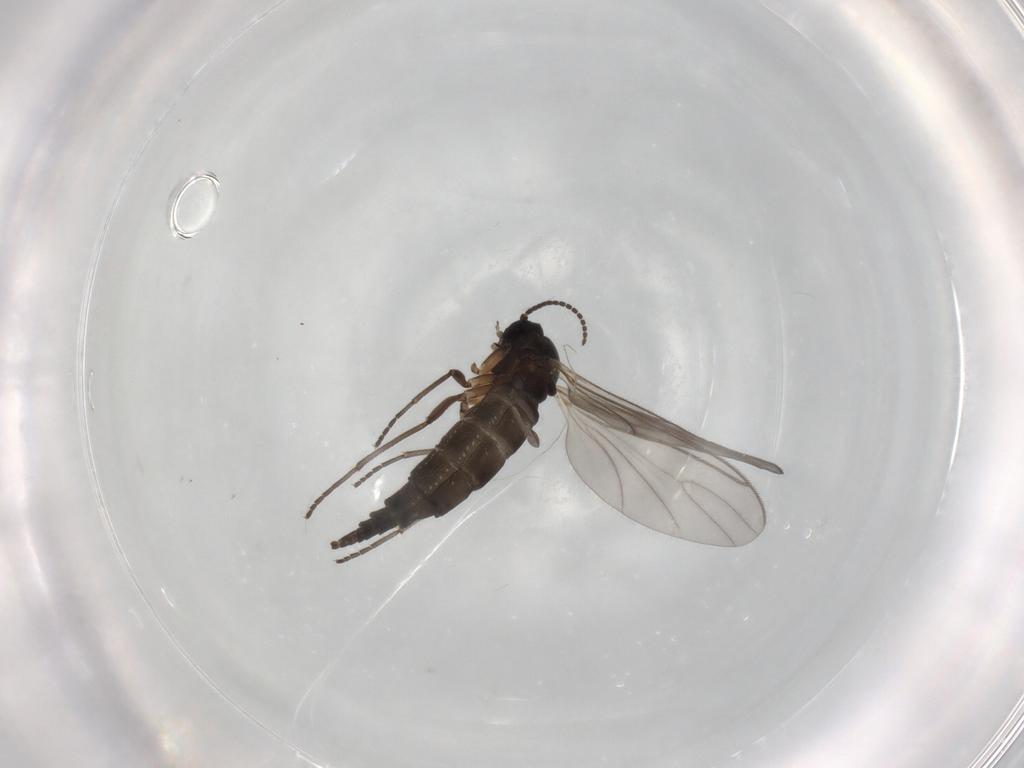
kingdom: Animalia
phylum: Arthropoda
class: Insecta
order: Diptera
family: Sciaridae
